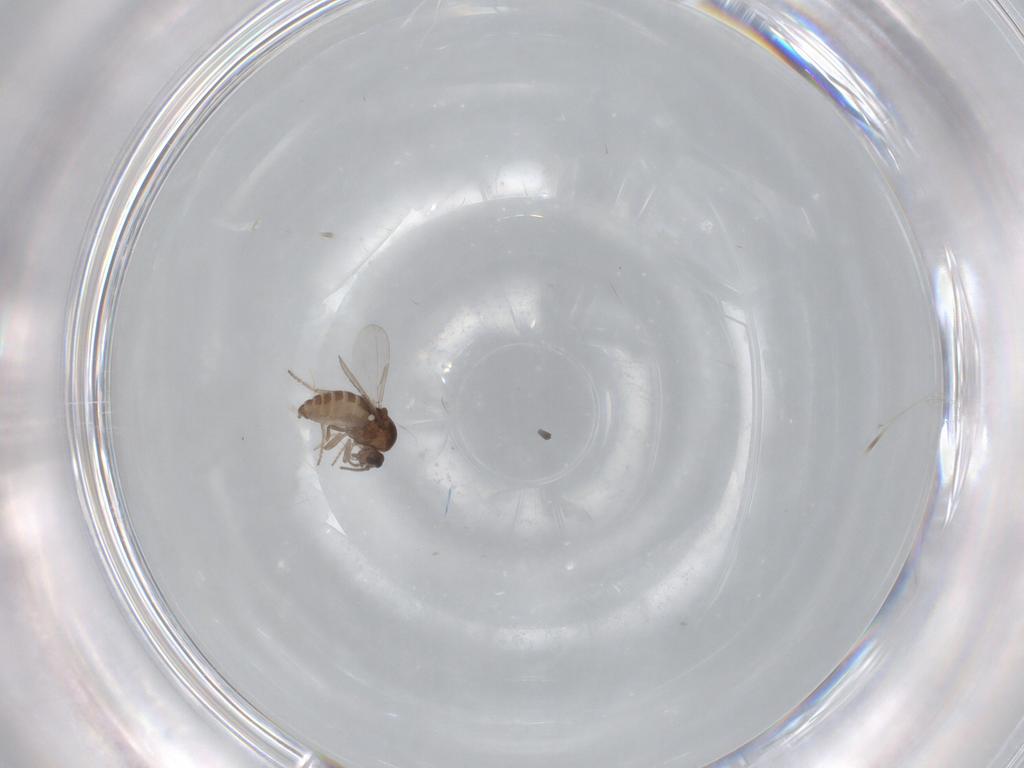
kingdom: Animalia
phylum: Arthropoda
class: Insecta
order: Diptera
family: Ceratopogonidae
